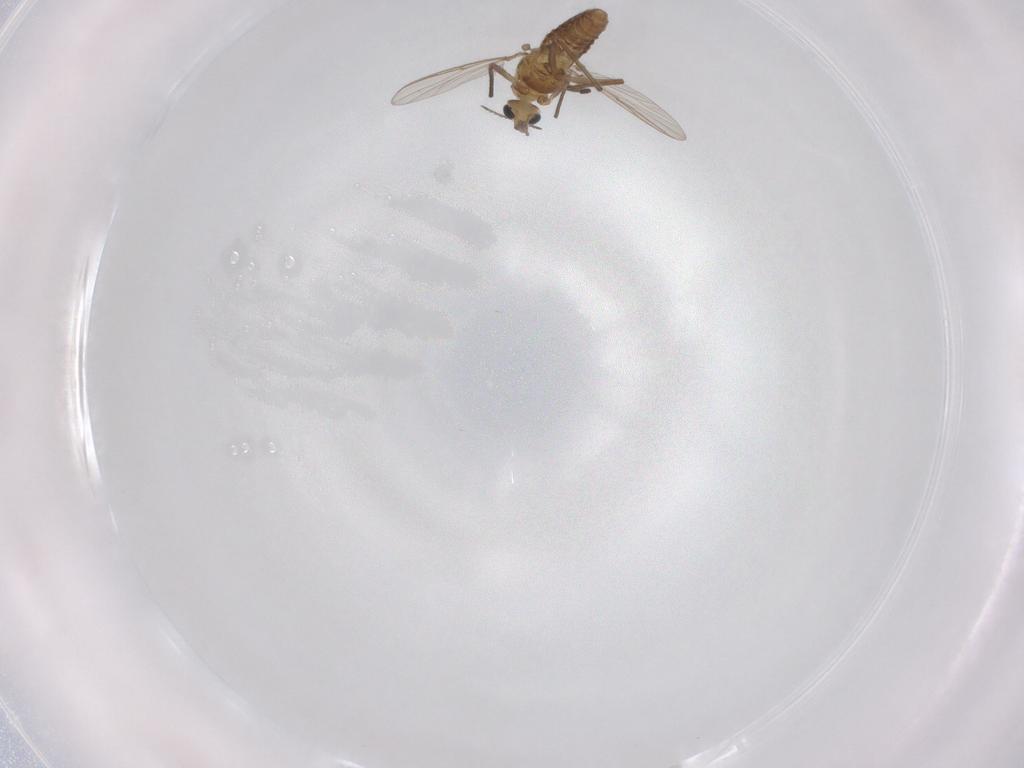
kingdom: Animalia
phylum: Arthropoda
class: Insecta
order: Diptera
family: Chironomidae
